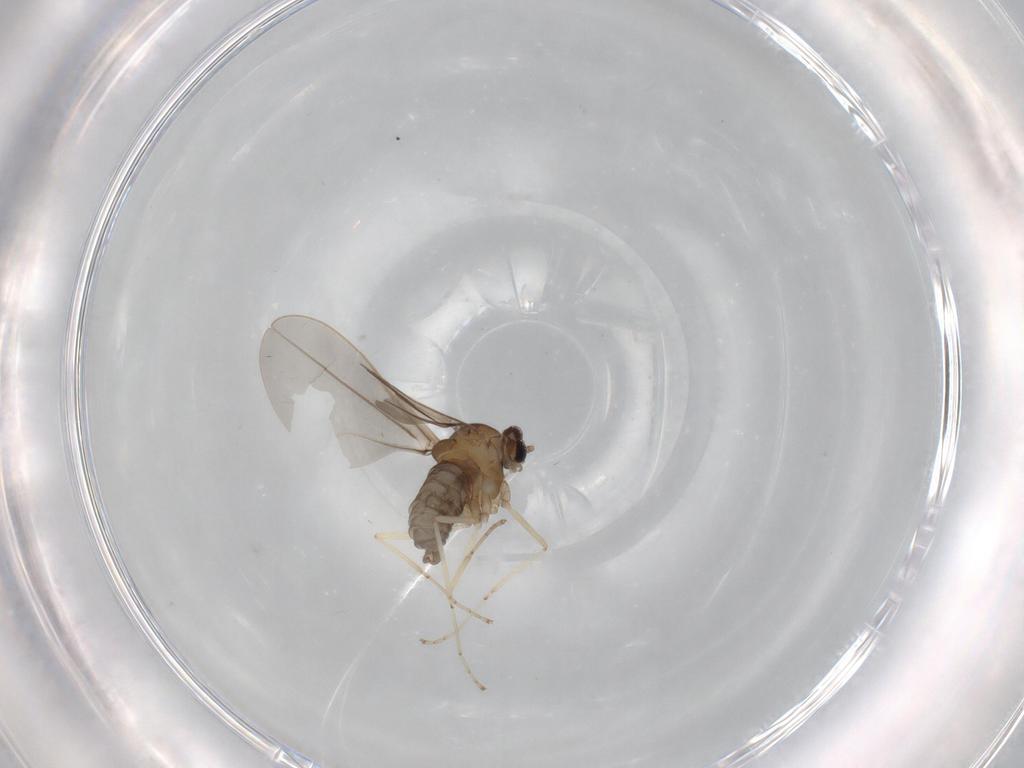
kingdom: Animalia
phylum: Arthropoda
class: Insecta
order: Diptera
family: Cecidomyiidae
